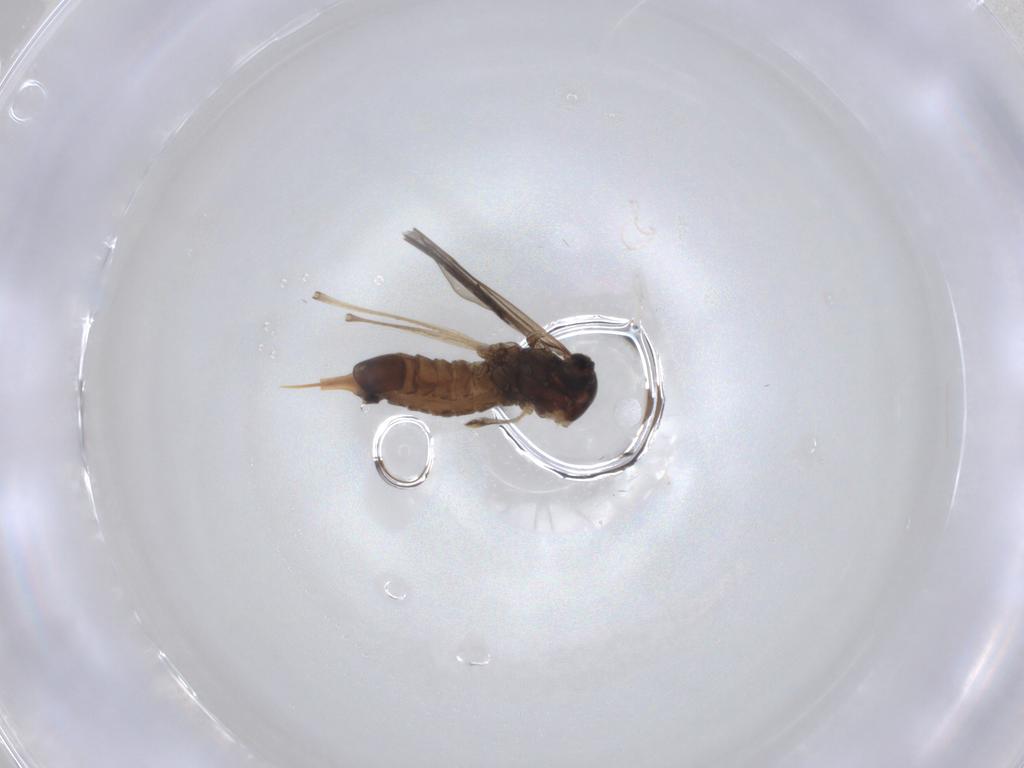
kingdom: Animalia
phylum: Arthropoda
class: Insecta
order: Diptera
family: Cecidomyiidae
